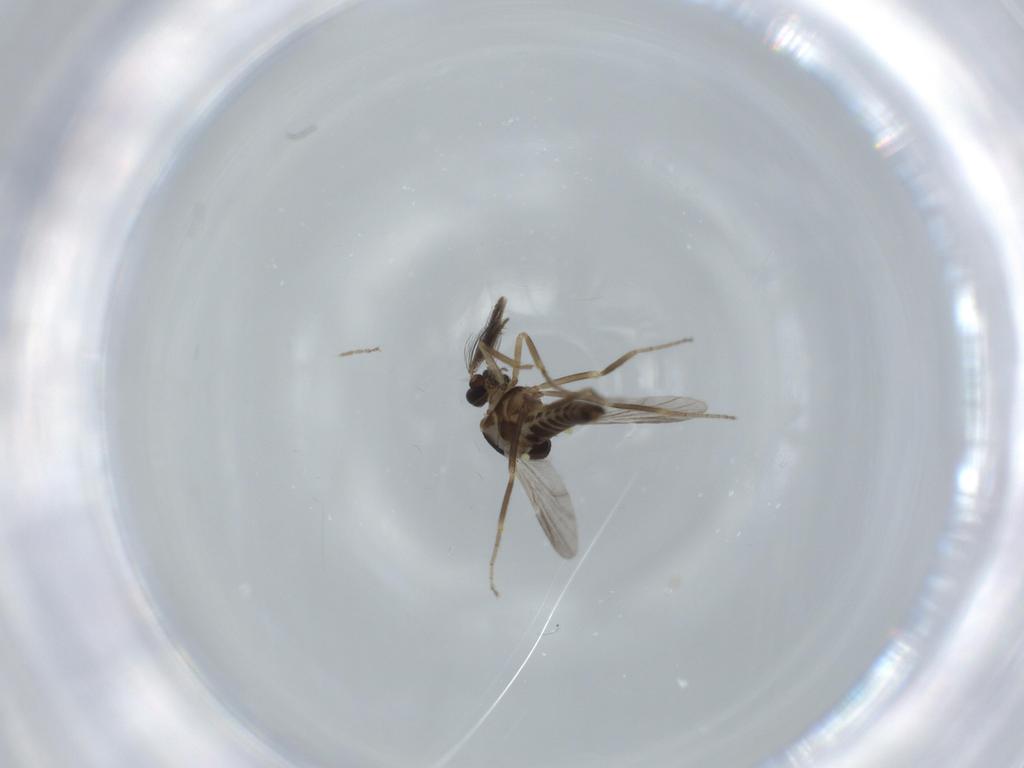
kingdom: Animalia
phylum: Arthropoda
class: Insecta
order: Diptera
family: Ceratopogonidae
